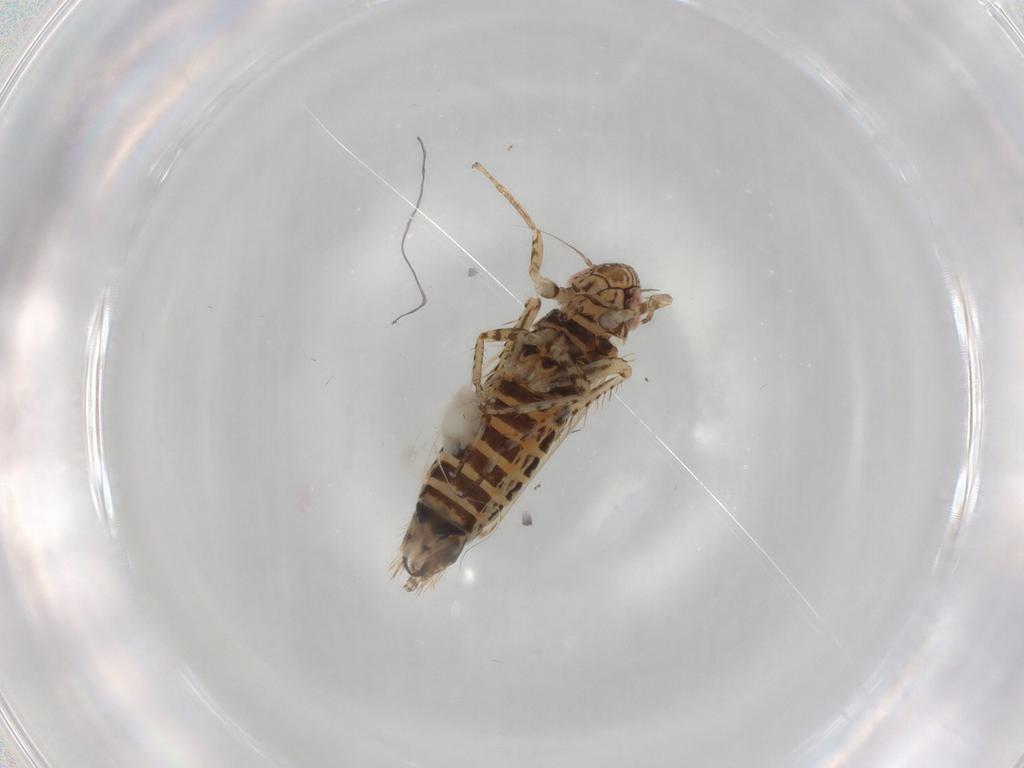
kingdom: Animalia
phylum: Arthropoda
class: Insecta
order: Hemiptera
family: Cicadellidae
